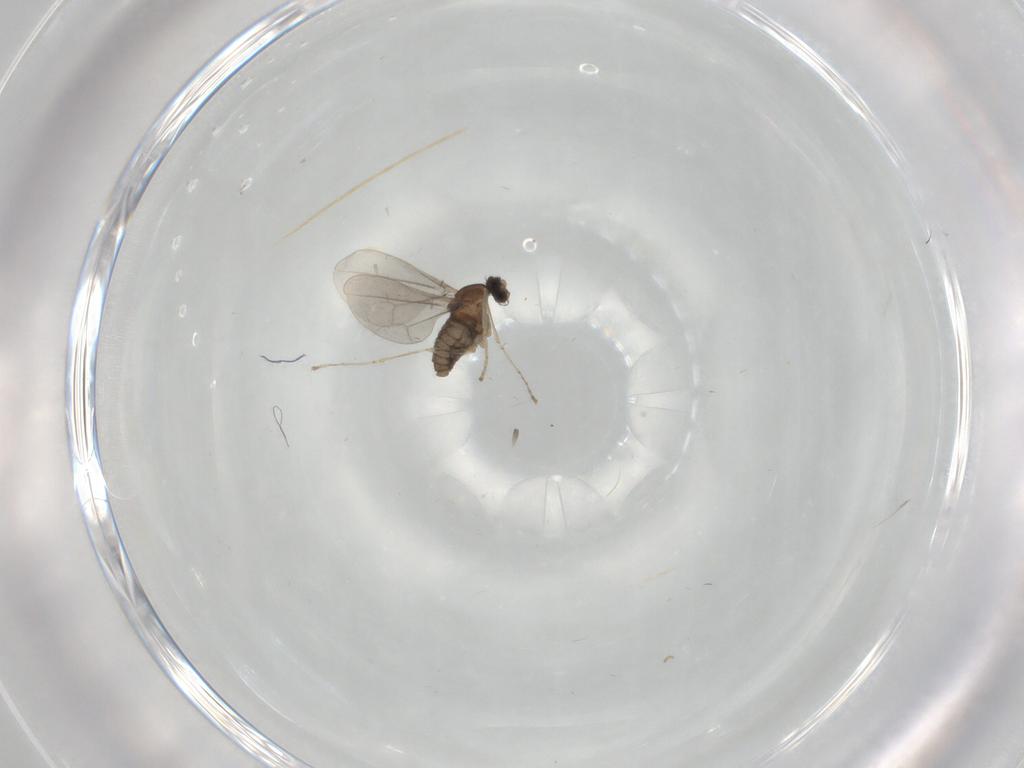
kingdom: Animalia
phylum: Arthropoda
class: Insecta
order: Diptera
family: Cecidomyiidae
